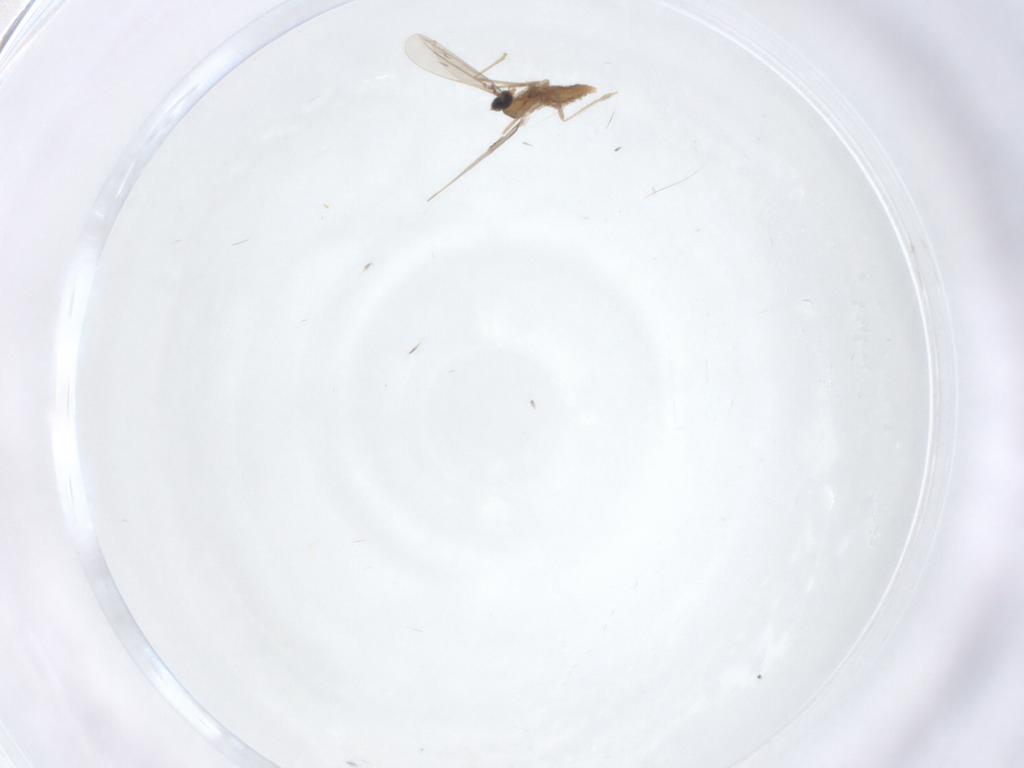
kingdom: Animalia
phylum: Arthropoda
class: Insecta
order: Diptera
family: Cecidomyiidae
